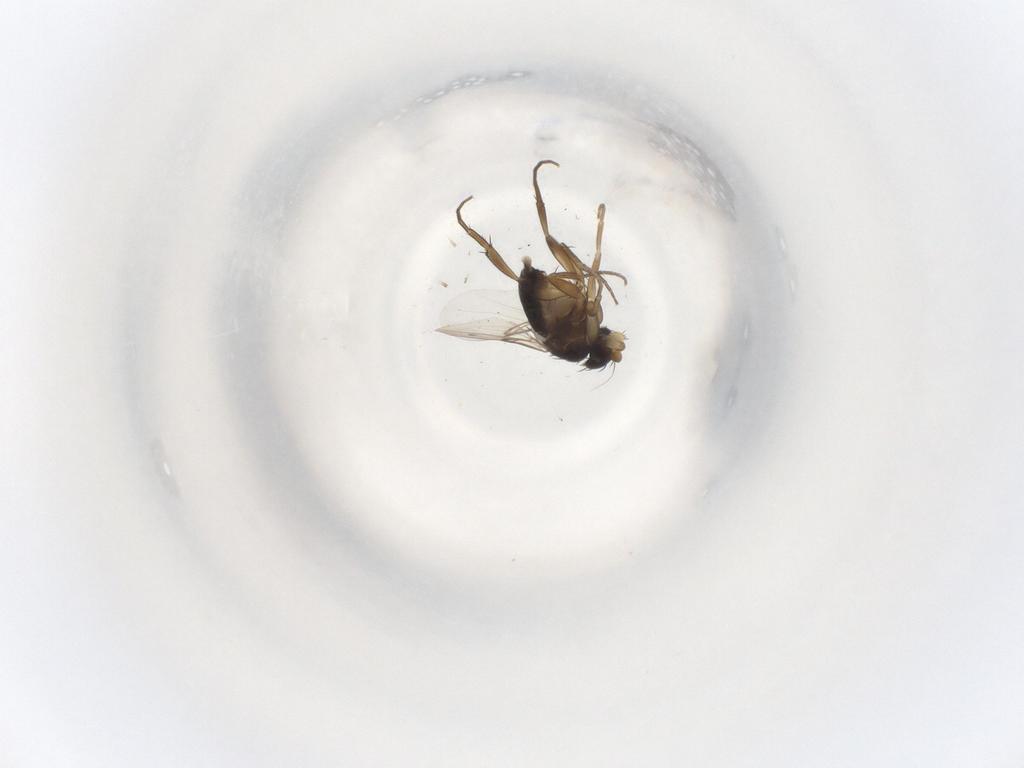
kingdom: Animalia
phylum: Arthropoda
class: Insecta
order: Diptera
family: Phoridae
